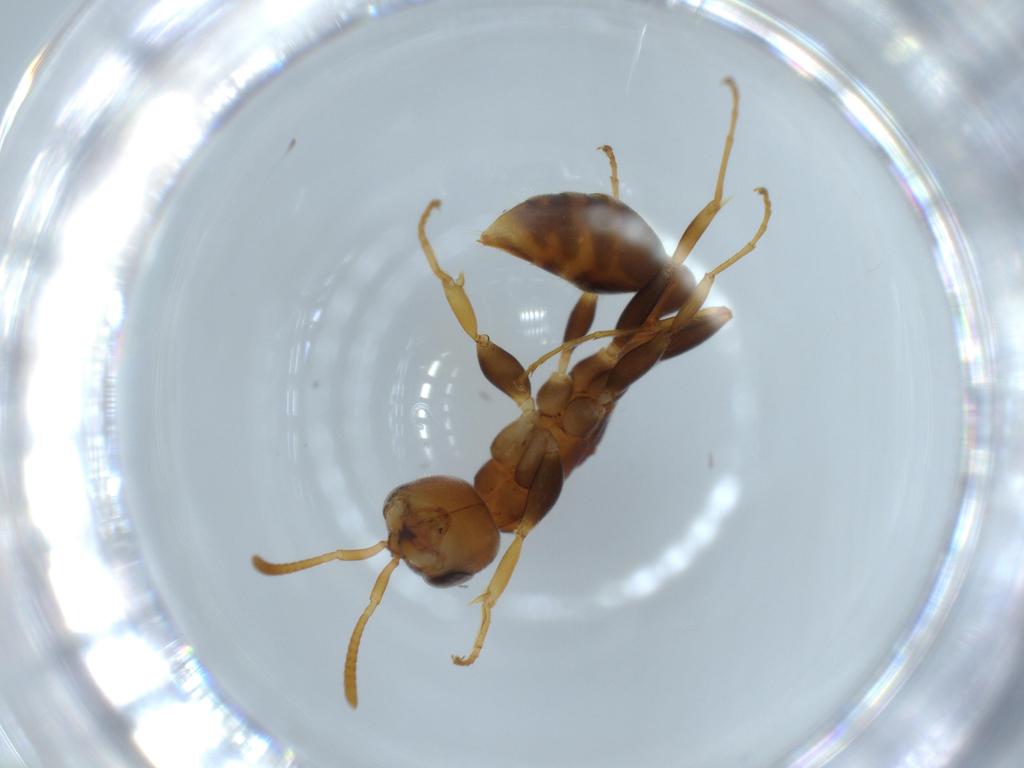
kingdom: Animalia
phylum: Arthropoda
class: Insecta
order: Hymenoptera
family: Formicidae
